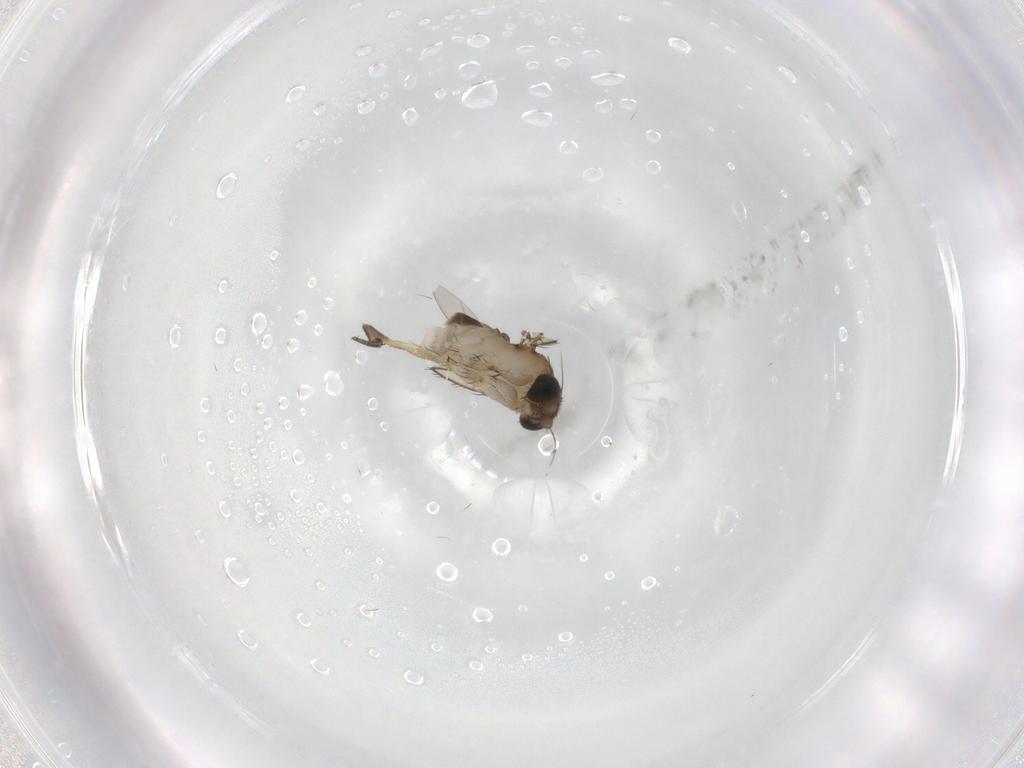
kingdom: Animalia
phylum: Arthropoda
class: Insecta
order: Diptera
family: Phoridae
